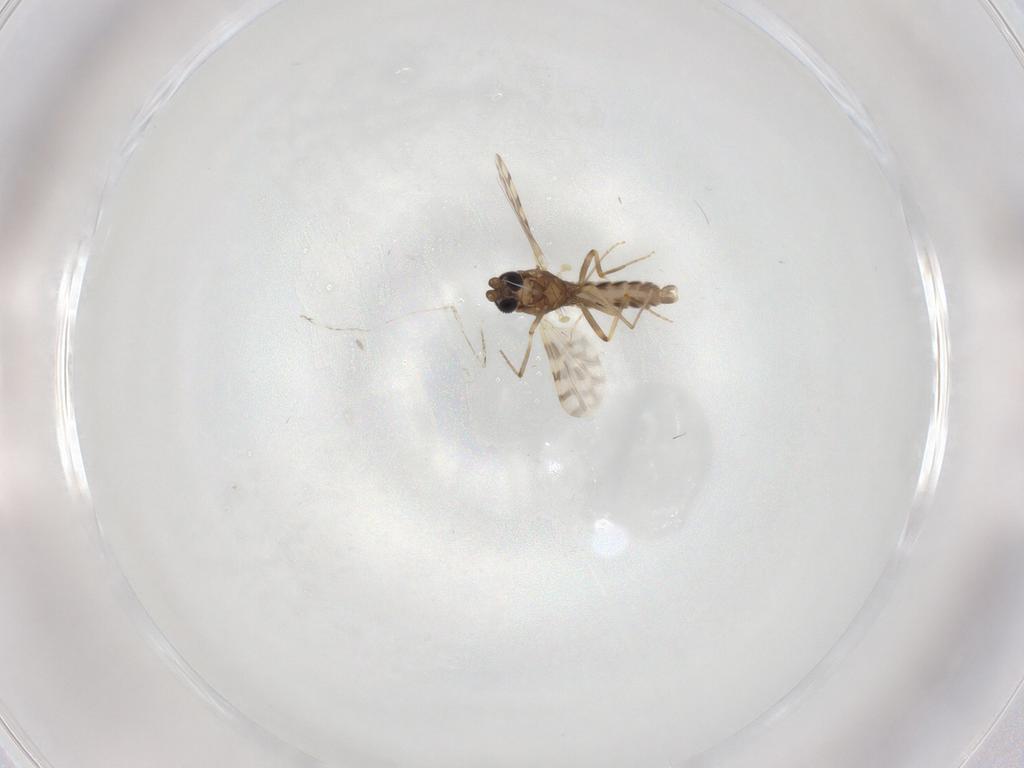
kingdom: Animalia
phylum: Arthropoda
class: Insecta
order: Diptera
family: Ceratopogonidae
